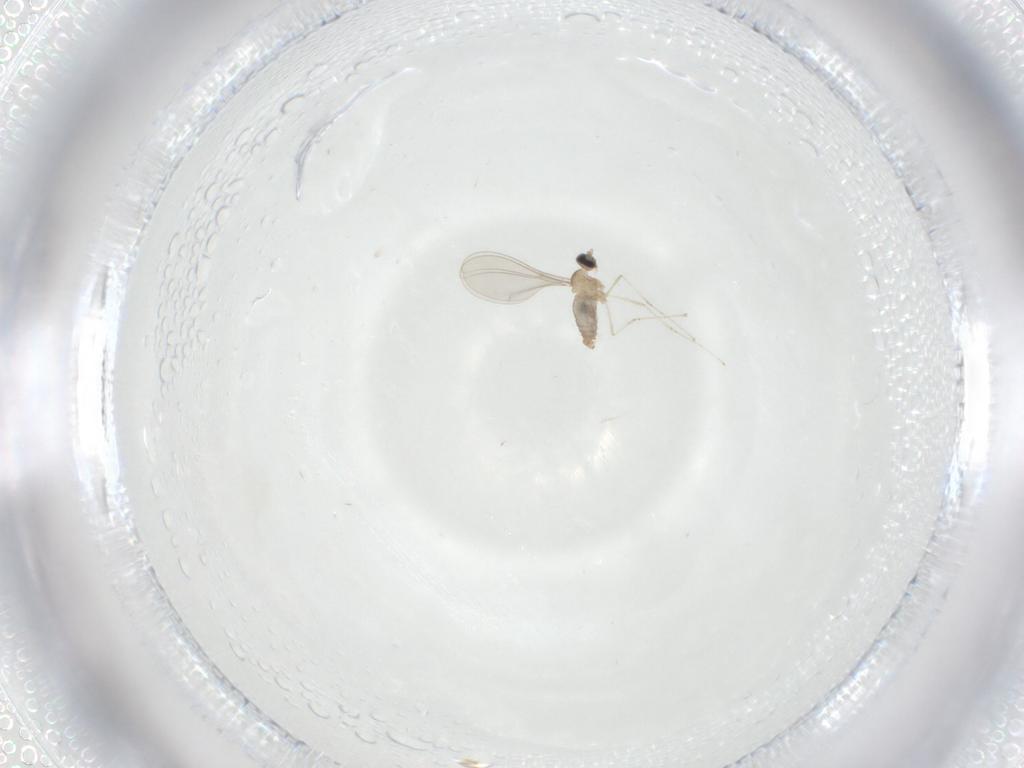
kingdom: Animalia
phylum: Arthropoda
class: Insecta
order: Diptera
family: Cecidomyiidae
